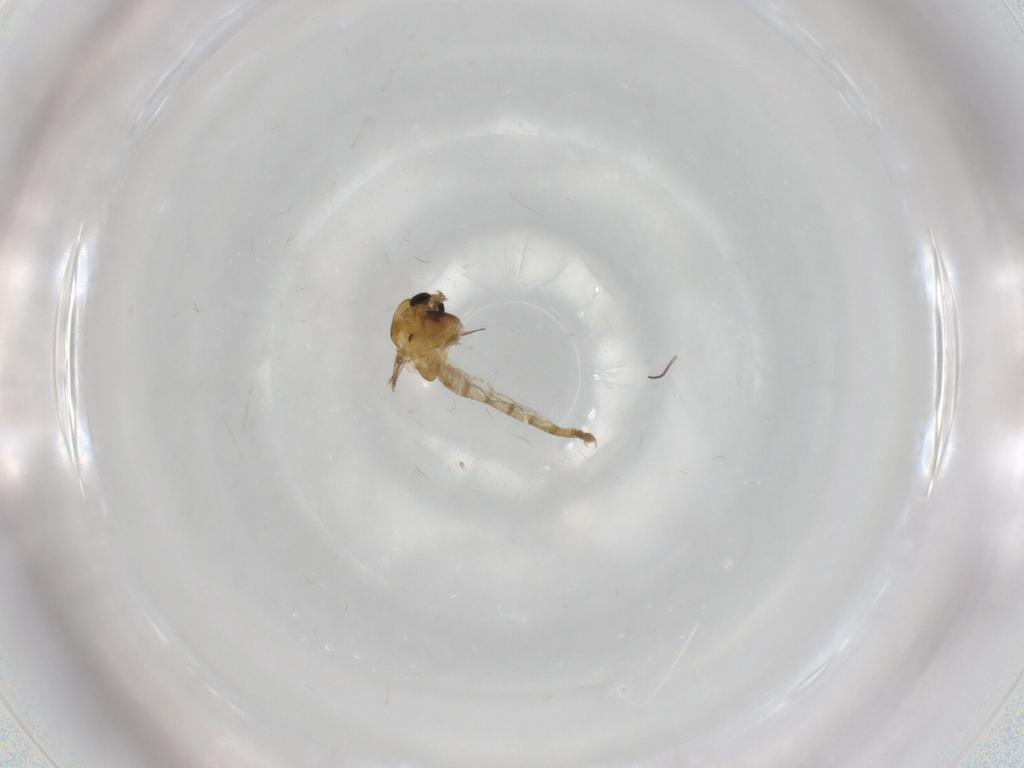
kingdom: Animalia
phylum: Arthropoda
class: Insecta
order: Diptera
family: Chironomidae
